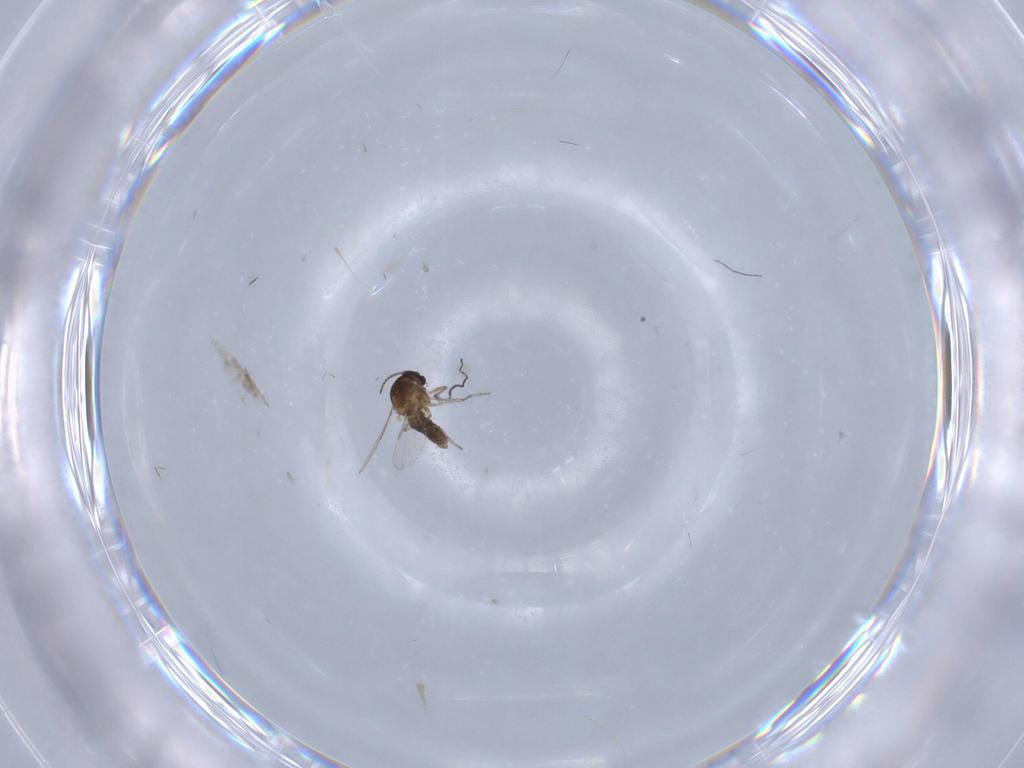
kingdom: Animalia
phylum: Arthropoda
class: Insecta
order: Diptera
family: Ceratopogonidae
